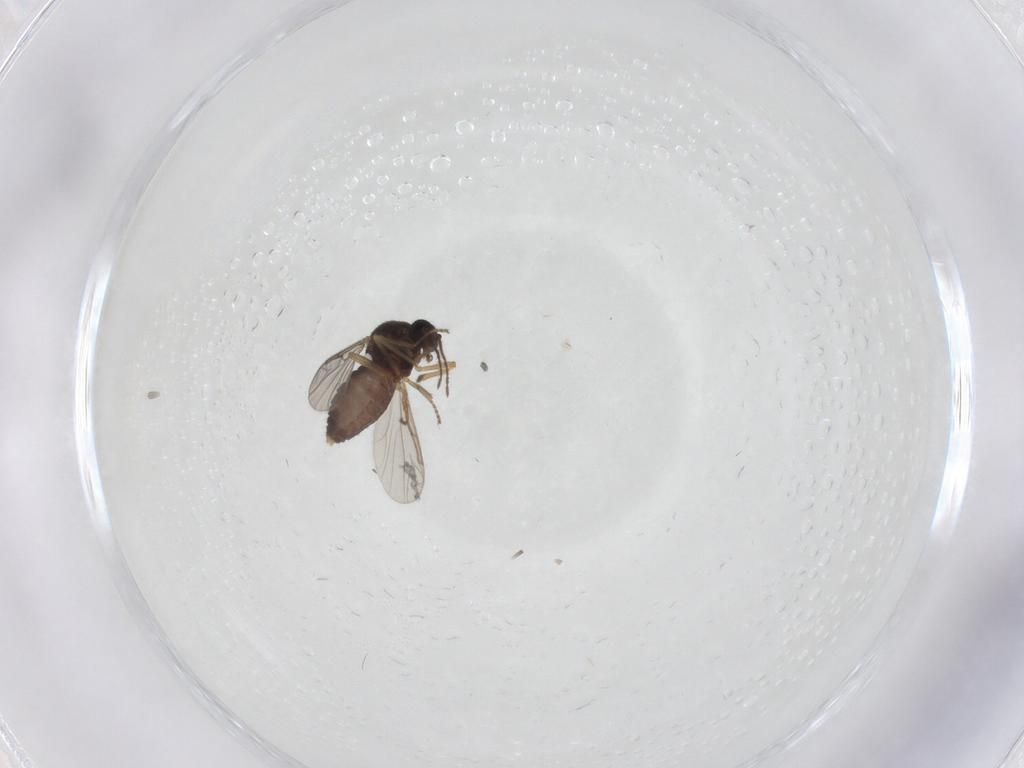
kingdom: Animalia
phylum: Arthropoda
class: Insecta
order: Diptera
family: Ceratopogonidae
